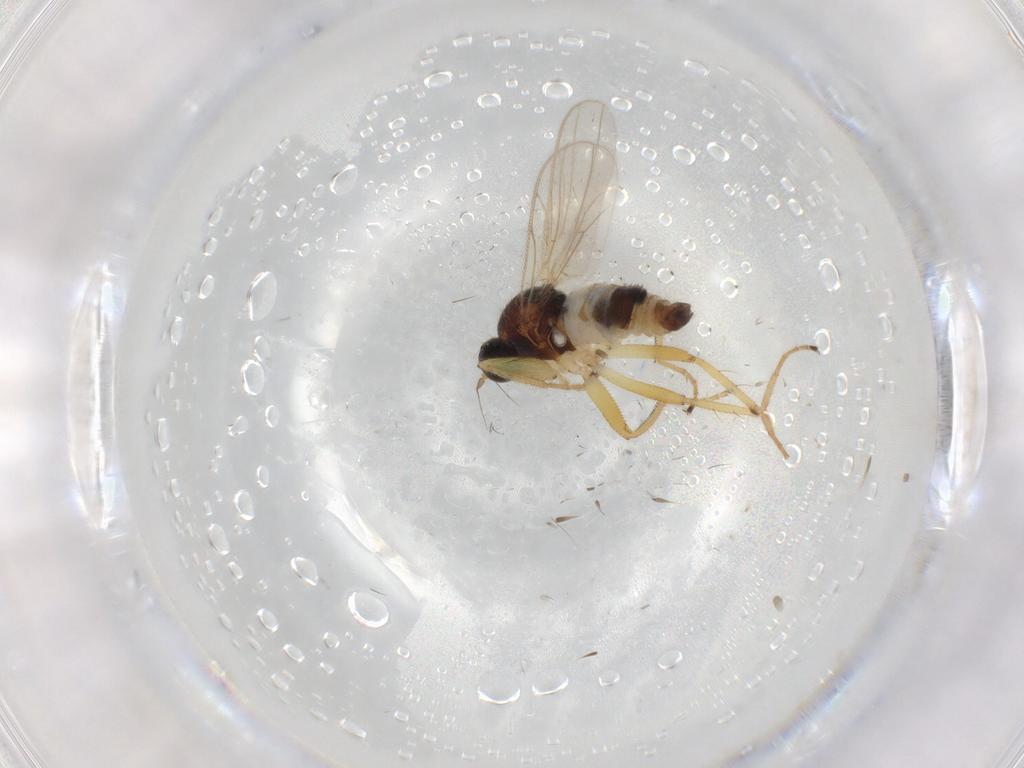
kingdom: Animalia
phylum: Arthropoda
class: Insecta
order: Diptera
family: Hybotidae
